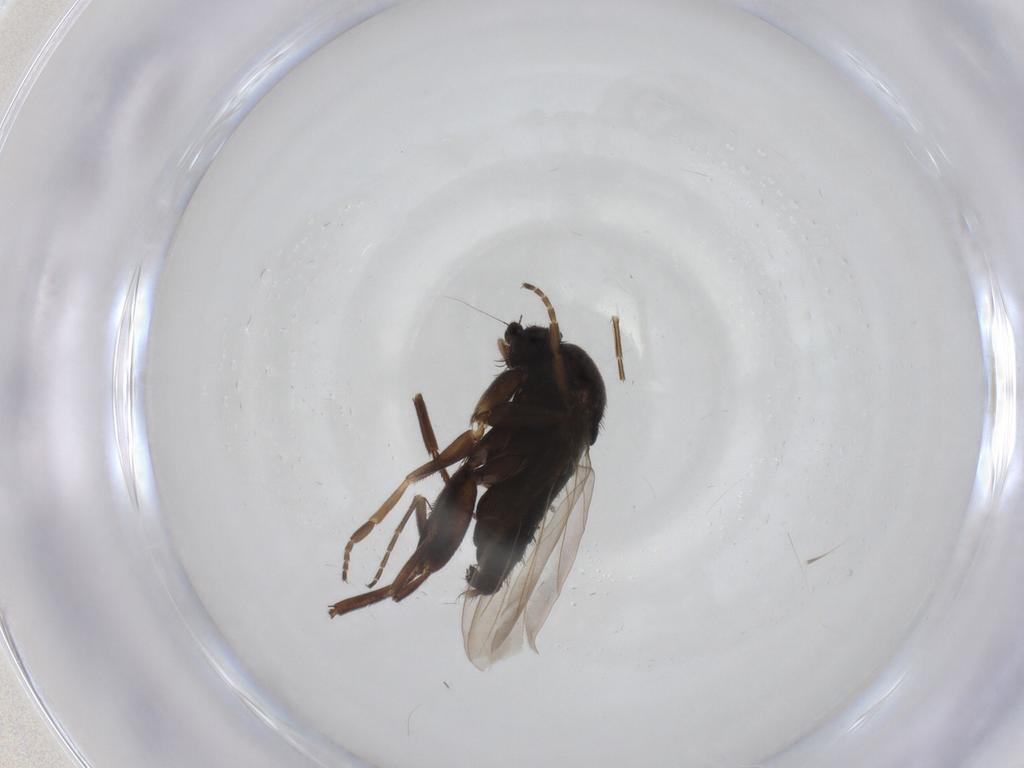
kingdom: Animalia
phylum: Arthropoda
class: Insecta
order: Diptera
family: Phoridae
